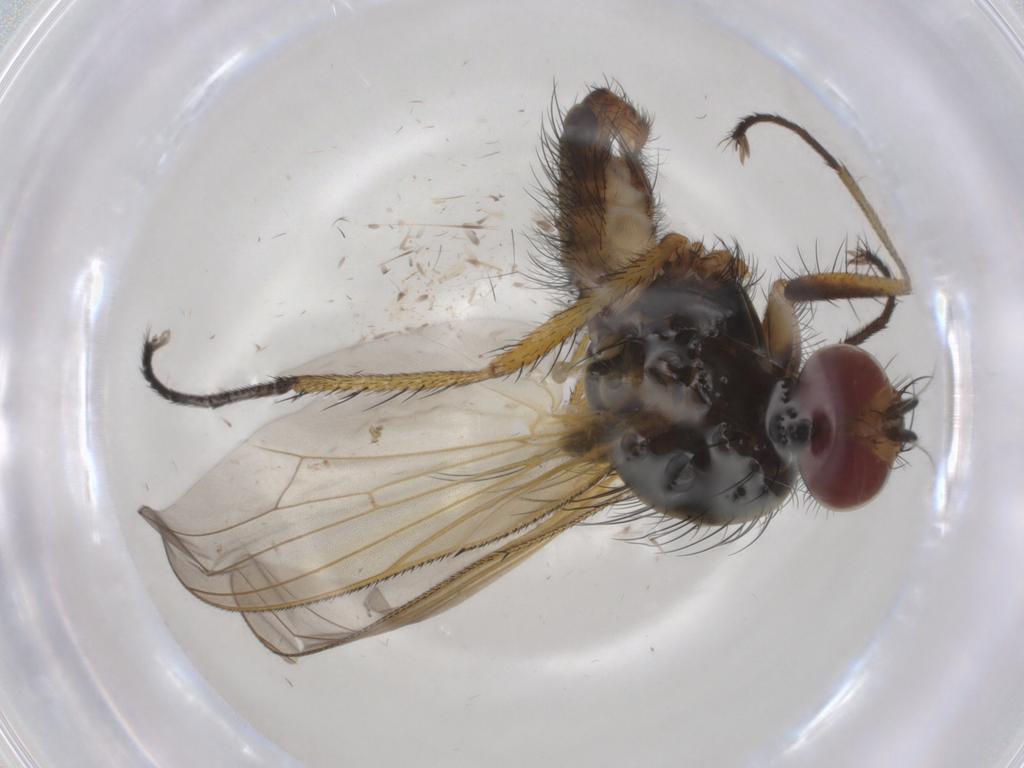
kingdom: Animalia
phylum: Arthropoda
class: Insecta
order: Diptera
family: Anthomyiidae
